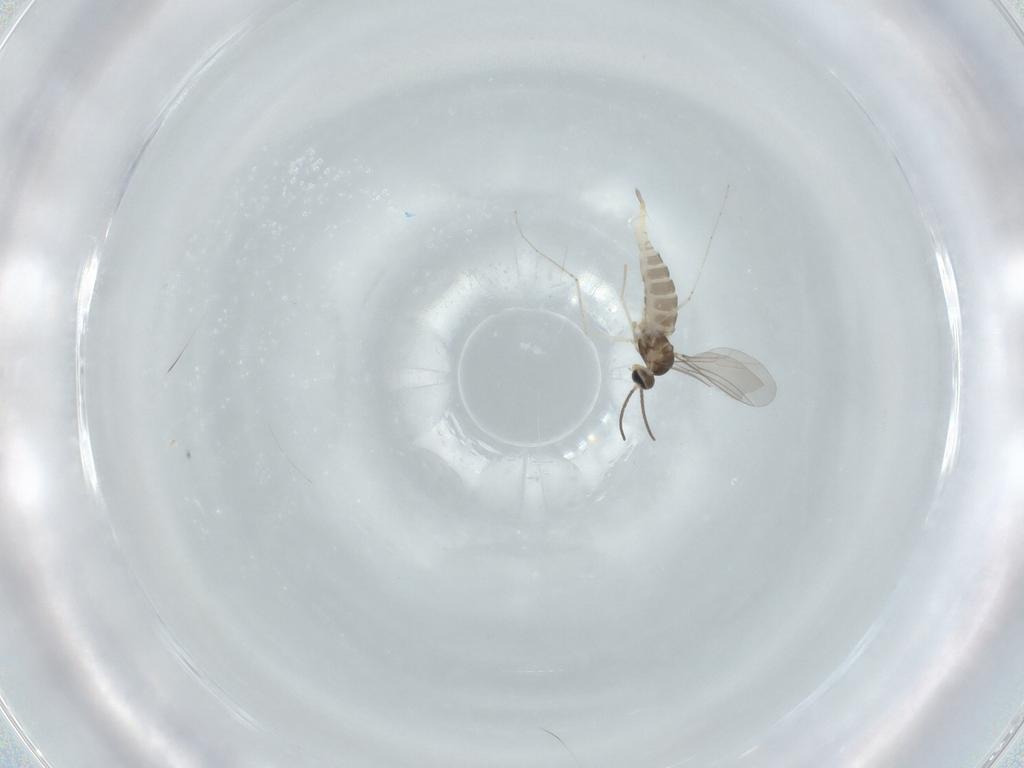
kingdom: Animalia
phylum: Arthropoda
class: Insecta
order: Diptera
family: Cecidomyiidae
